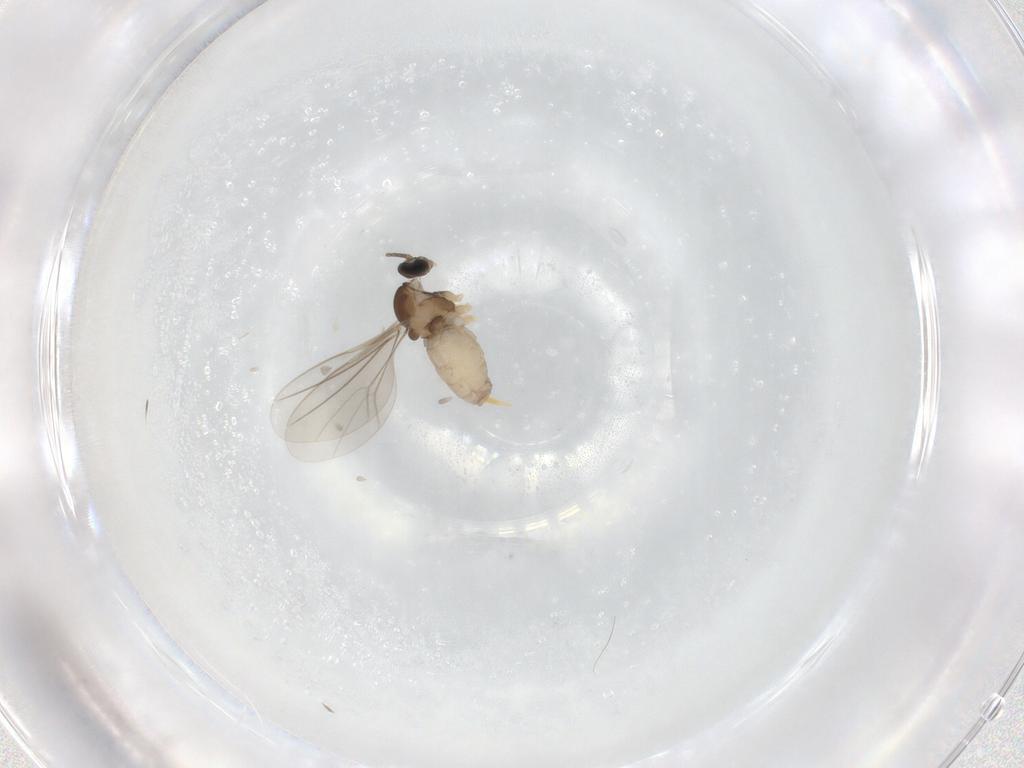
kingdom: Animalia
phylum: Arthropoda
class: Insecta
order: Diptera
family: Cecidomyiidae
